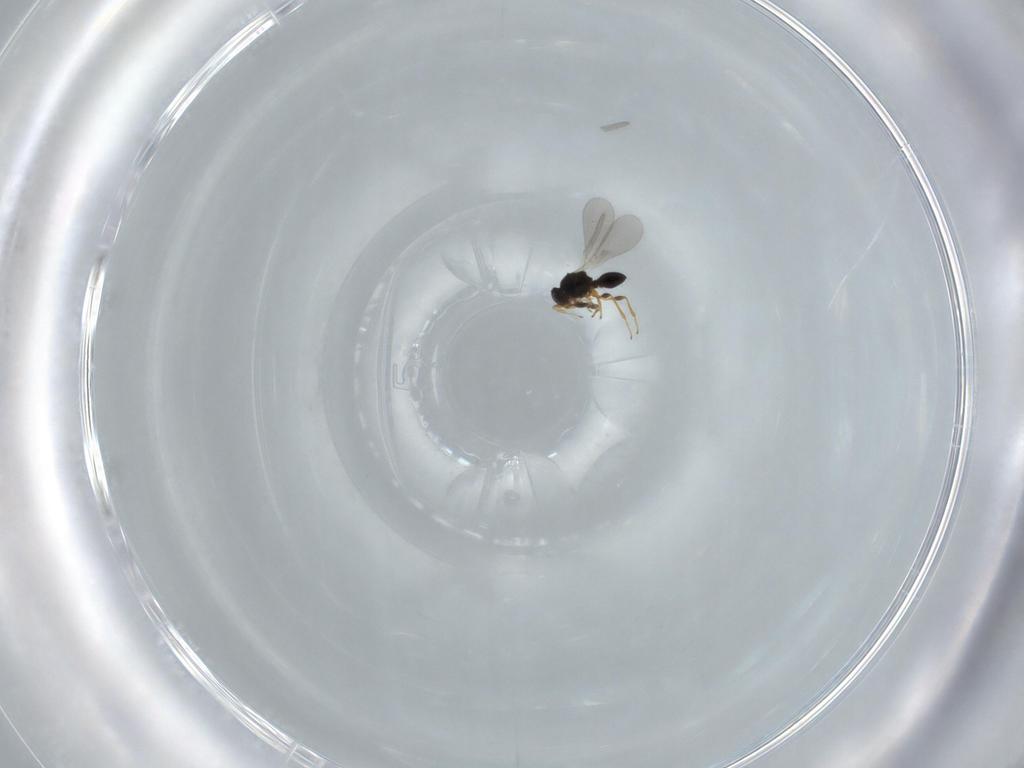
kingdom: Animalia
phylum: Arthropoda
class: Insecta
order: Hymenoptera
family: Platygastridae
